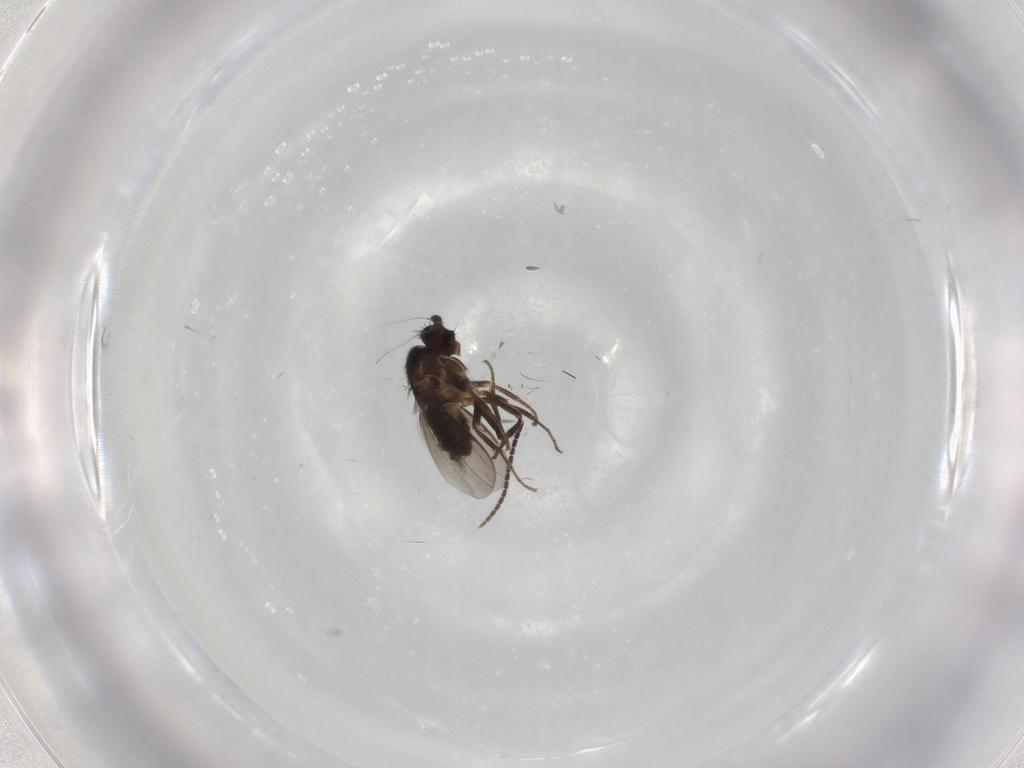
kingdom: Animalia
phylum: Arthropoda
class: Insecta
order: Diptera
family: Sphaeroceridae
